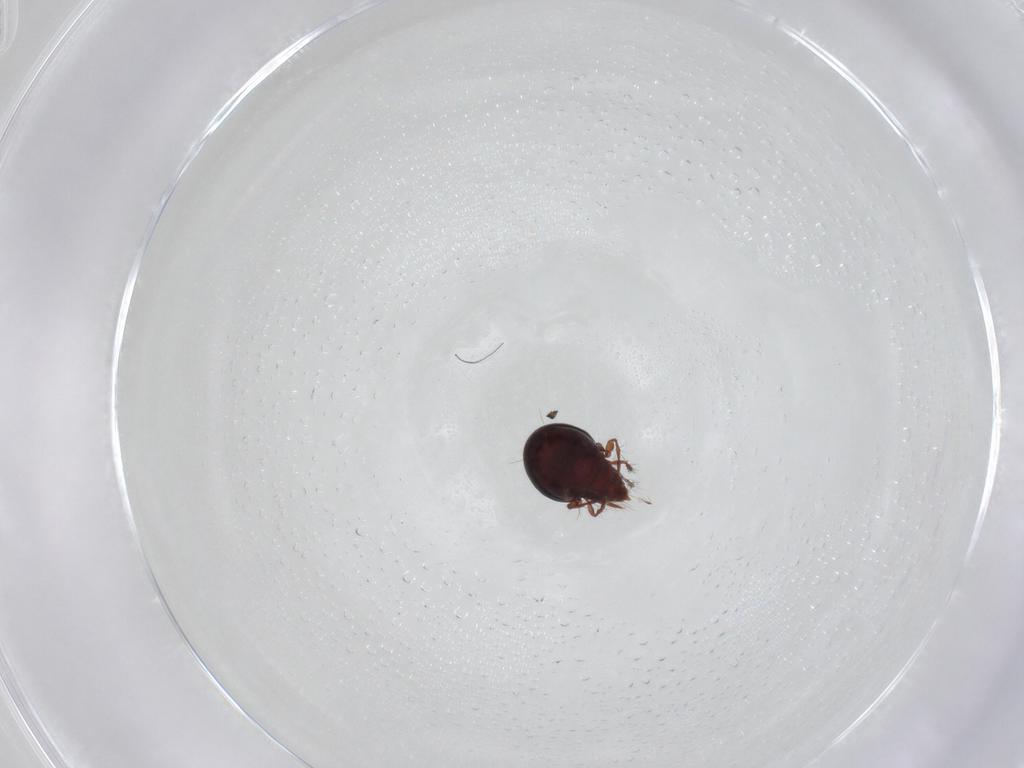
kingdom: Animalia
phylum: Arthropoda
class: Arachnida
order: Sarcoptiformes
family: Ceratoppiidae
